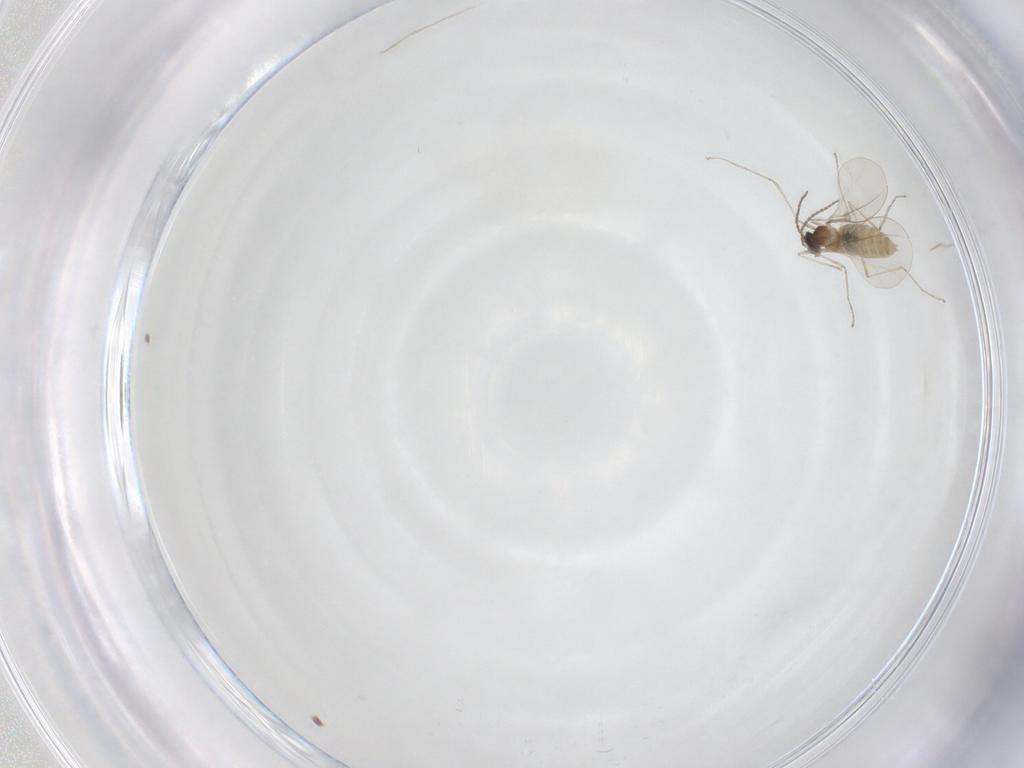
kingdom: Animalia
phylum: Arthropoda
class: Insecta
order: Diptera
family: Cecidomyiidae
